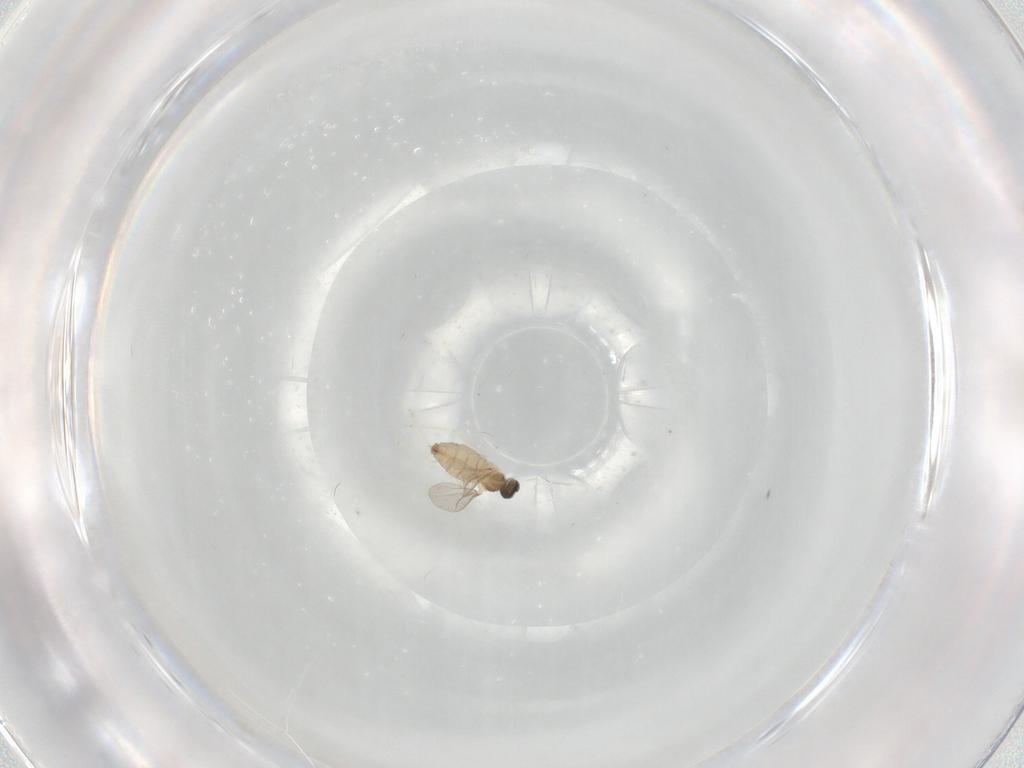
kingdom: Animalia
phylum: Arthropoda
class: Insecta
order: Diptera
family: Cecidomyiidae
